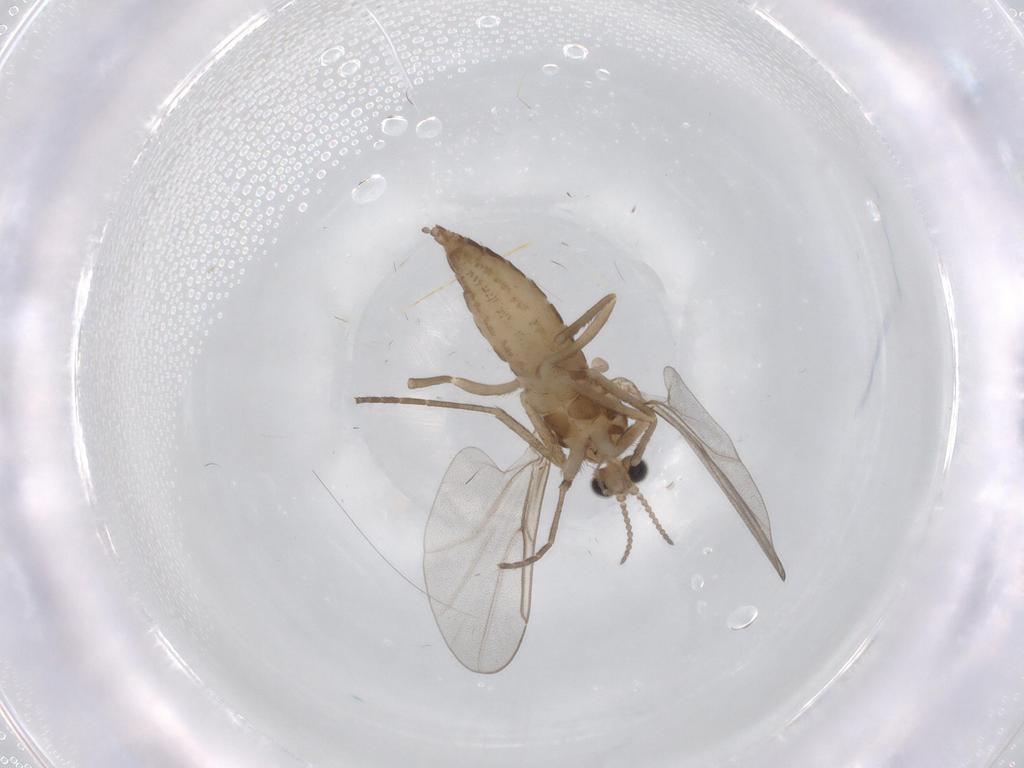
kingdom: Animalia
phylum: Arthropoda
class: Insecta
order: Diptera
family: Cecidomyiidae
